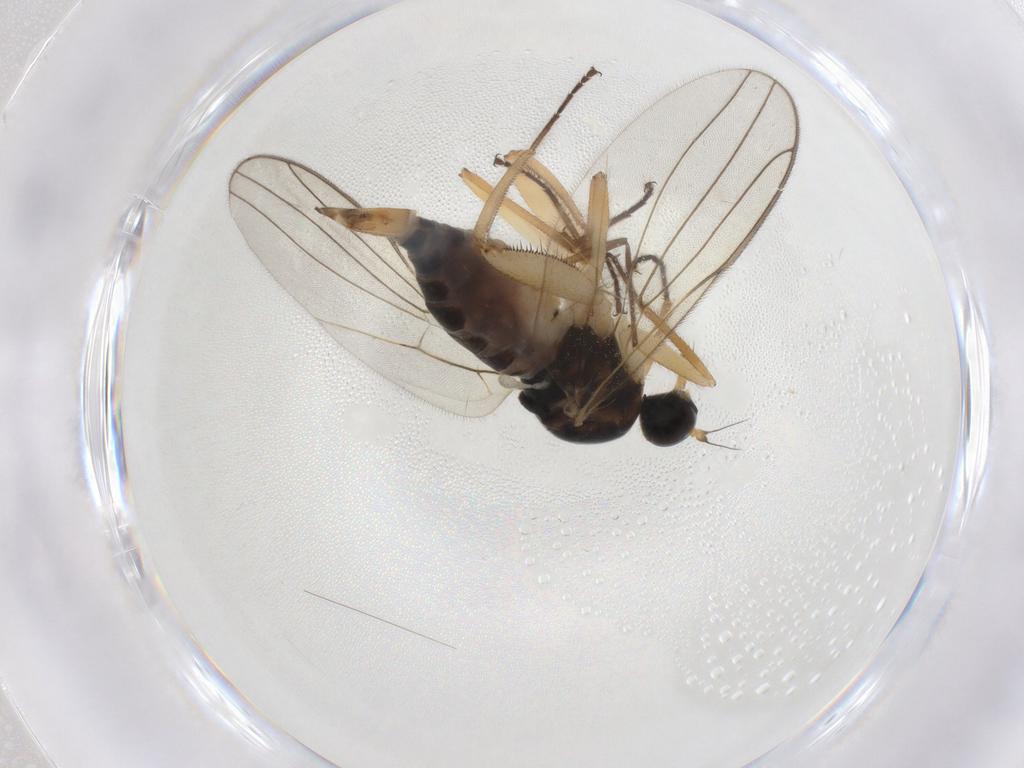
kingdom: Animalia
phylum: Arthropoda
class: Insecta
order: Diptera
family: Hybotidae
